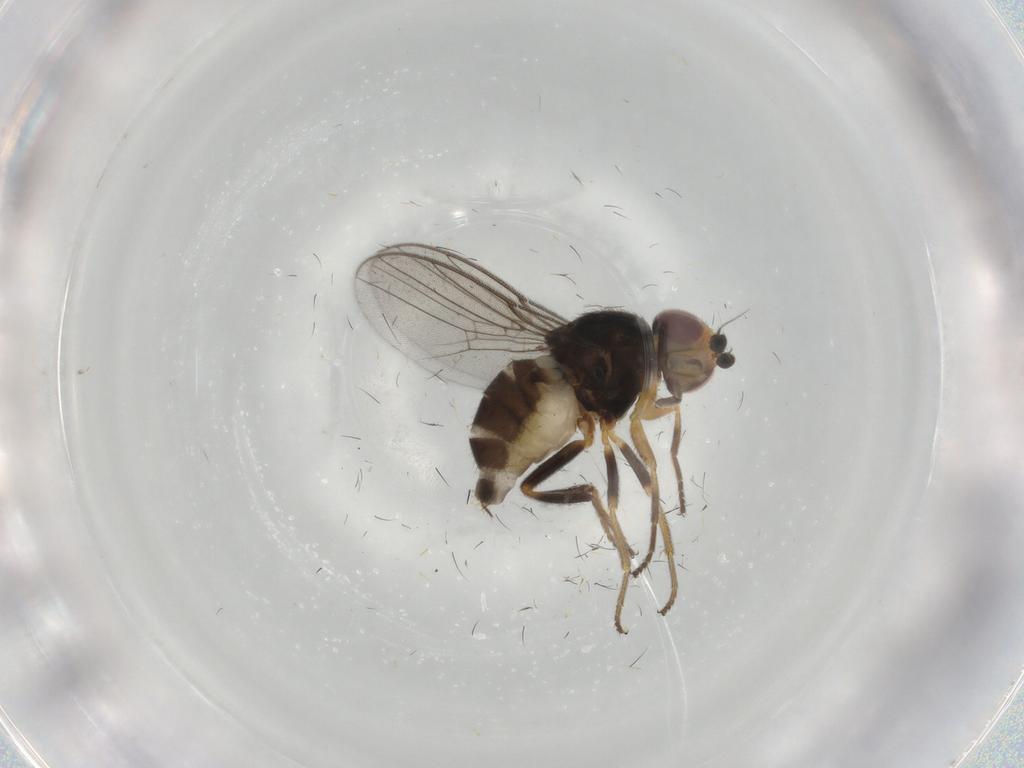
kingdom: Animalia
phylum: Arthropoda
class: Insecta
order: Diptera
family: Chloropidae
